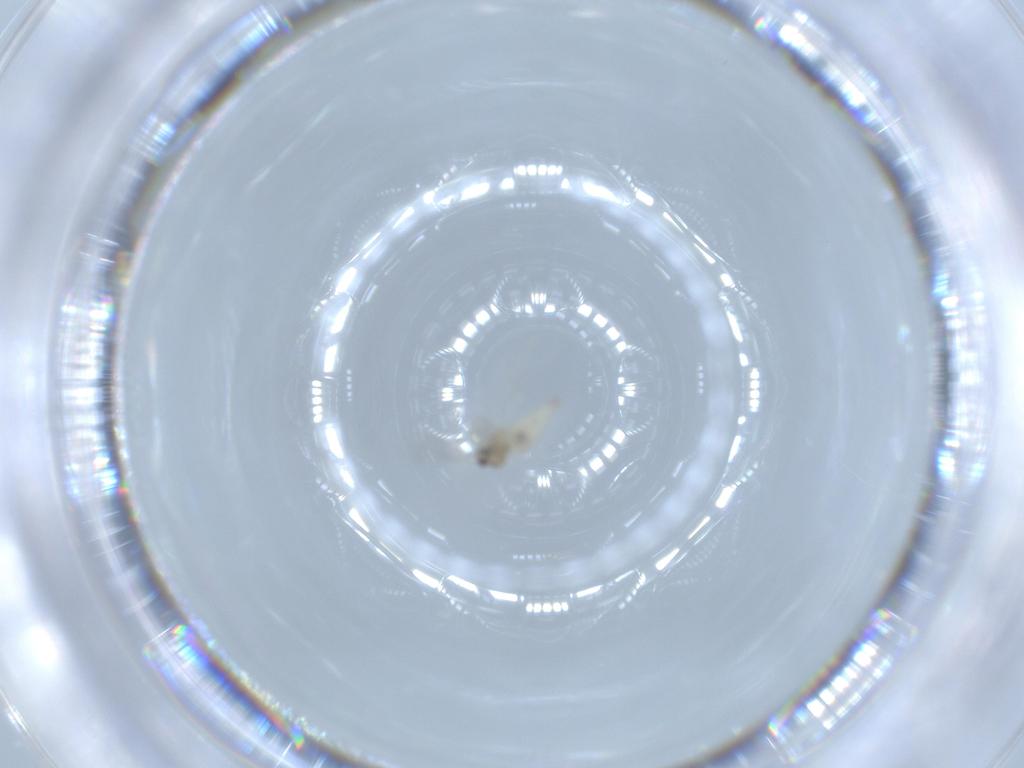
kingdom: Animalia
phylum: Arthropoda
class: Insecta
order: Diptera
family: Cecidomyiidae
